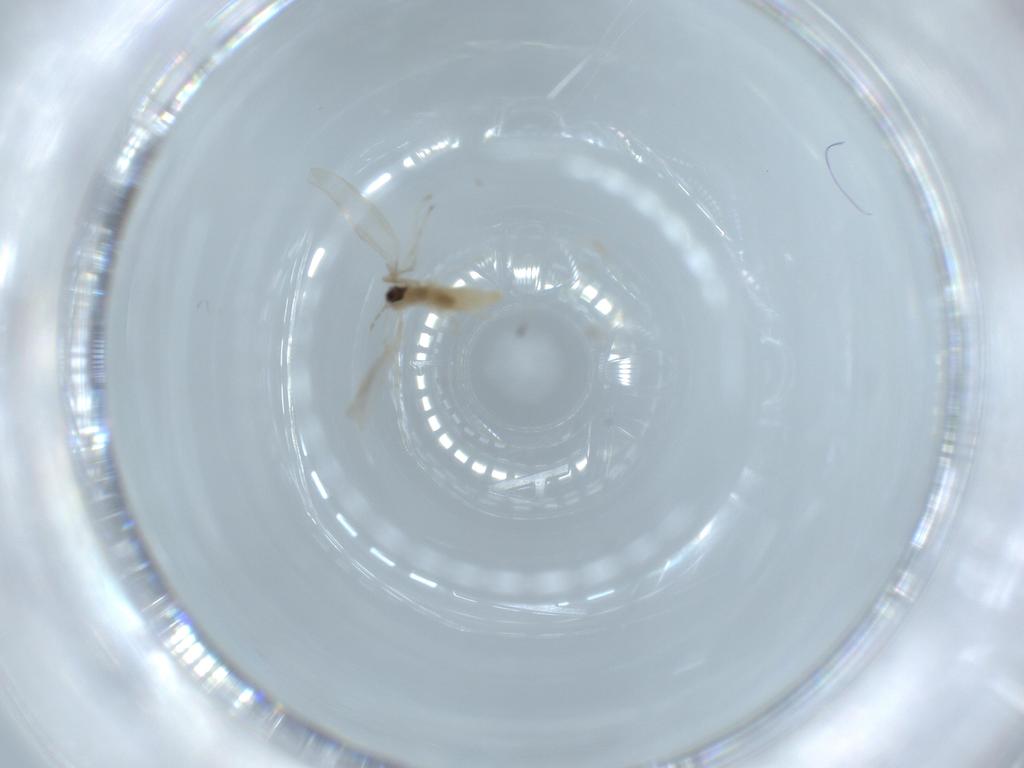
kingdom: Animalia
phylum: Arthropoda
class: Insecta
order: Diptera
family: Pipunculidae
